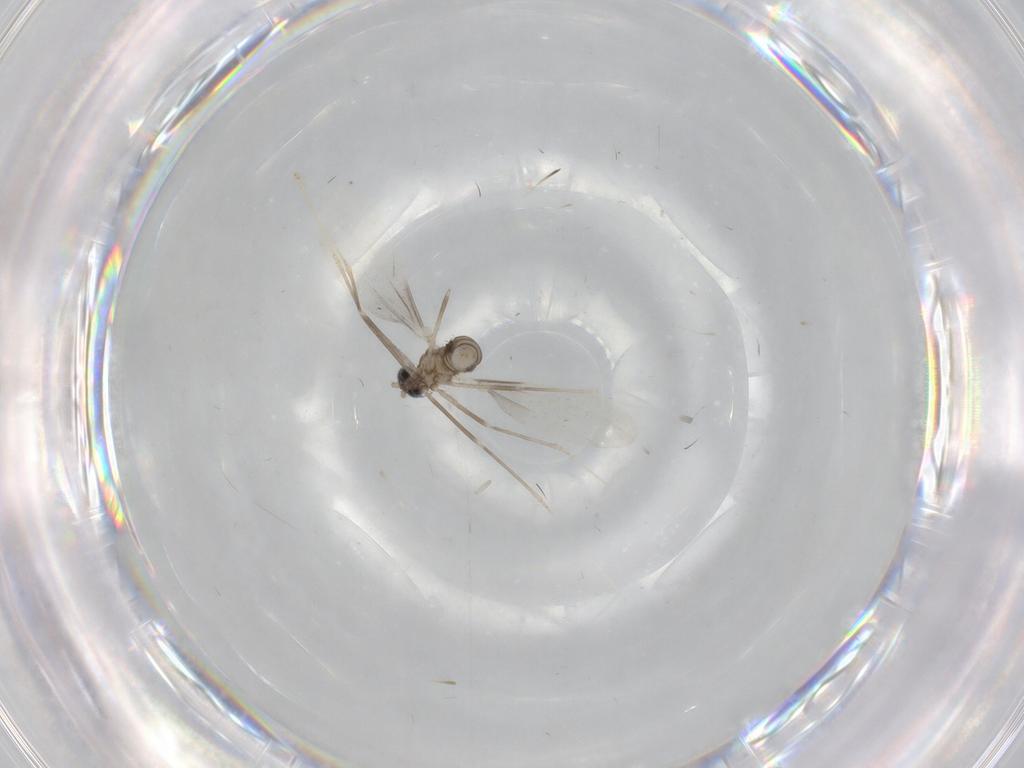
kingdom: Animalia
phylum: Arthropoda
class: Insecta
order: Diptera
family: Cecidomyiidae
